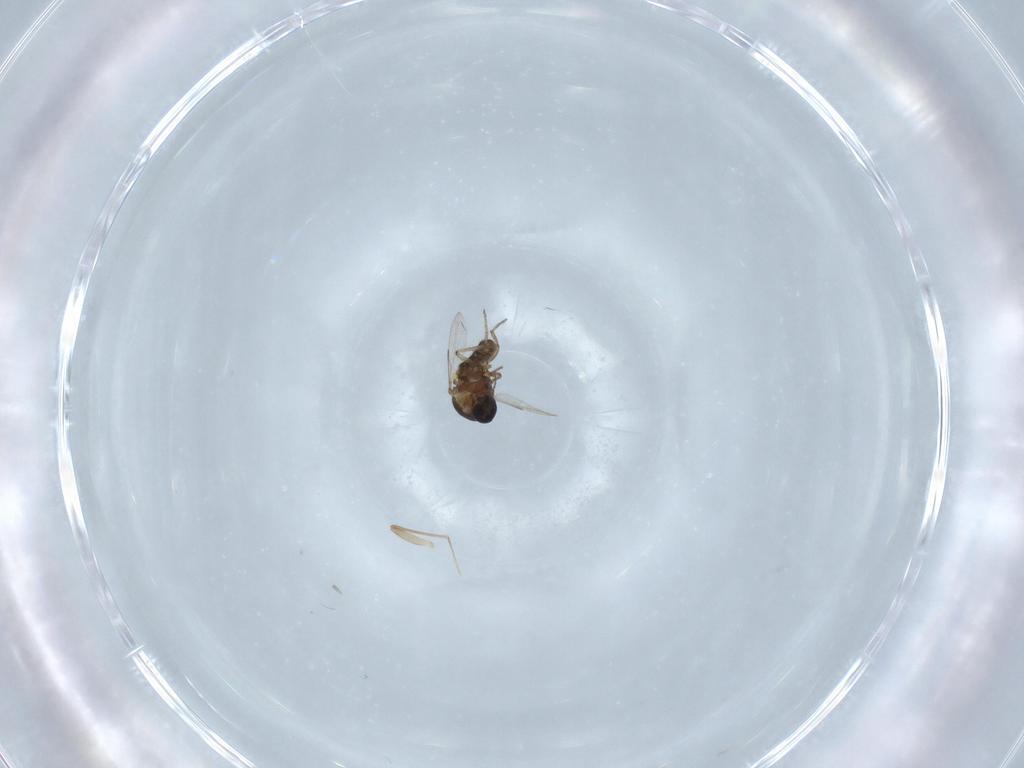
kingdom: Animalia
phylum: Arthropoda
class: Insecta
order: Diptera
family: Ceratopogonidae
